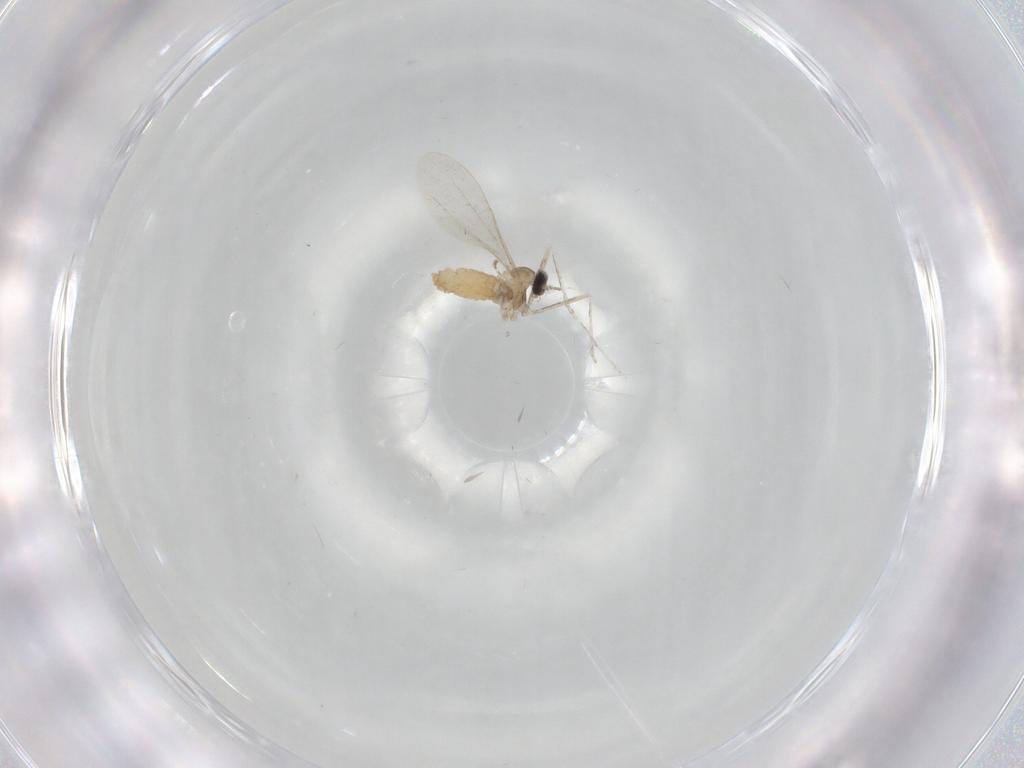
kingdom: Animalia
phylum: Arthropoda
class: Insecta
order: Diptera
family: Cecidomyiidae
